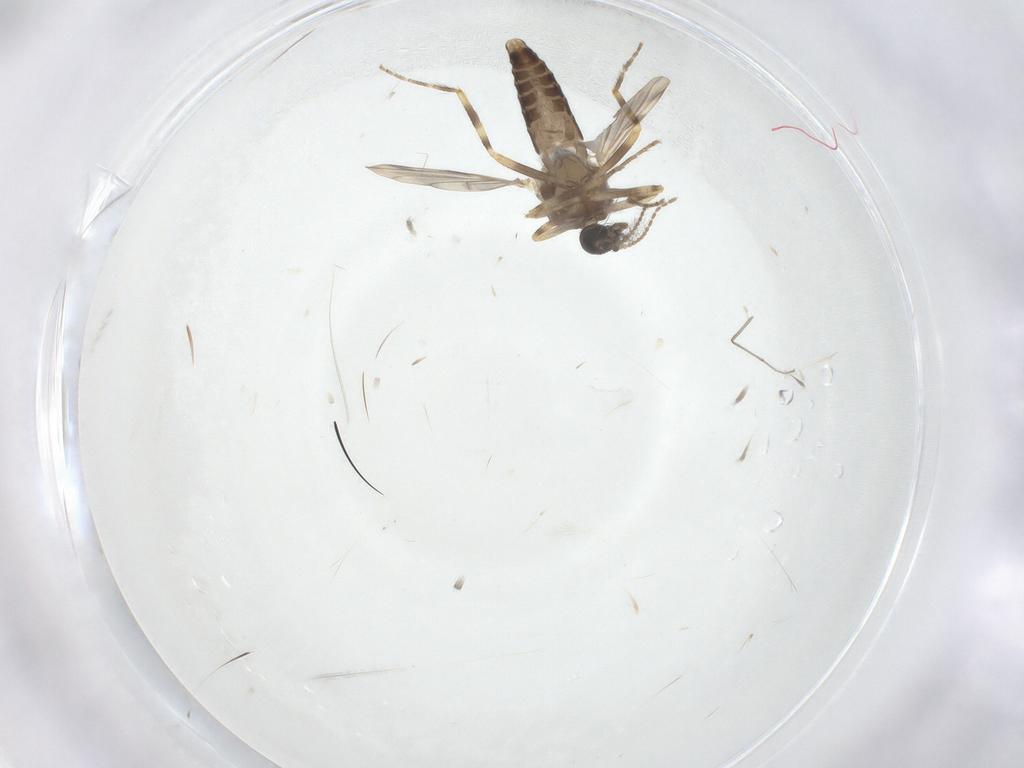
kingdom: Animalia
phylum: Arthropoda
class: Insecta
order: Diptera
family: Ceratopogonidae
